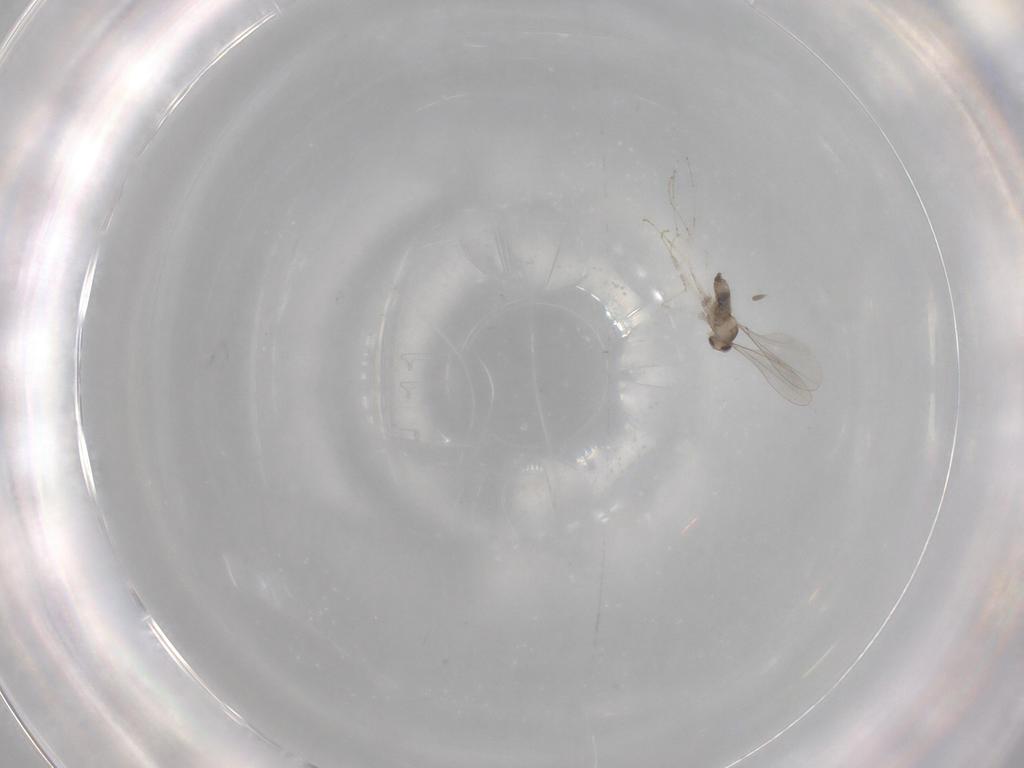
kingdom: Animalia
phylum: Arthropoda
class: Insecta
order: Diptera
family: Cecidomyiidae
